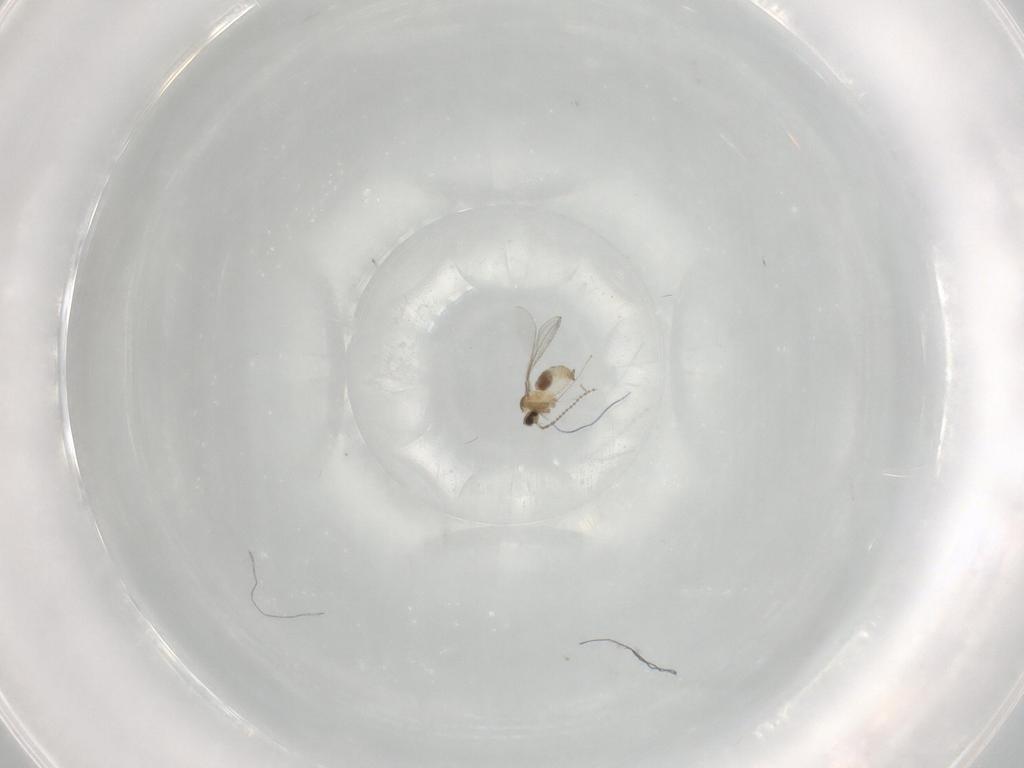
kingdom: Animalia
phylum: Arthropoda
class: Insecta
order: Diptera
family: Cecidomyiidae
